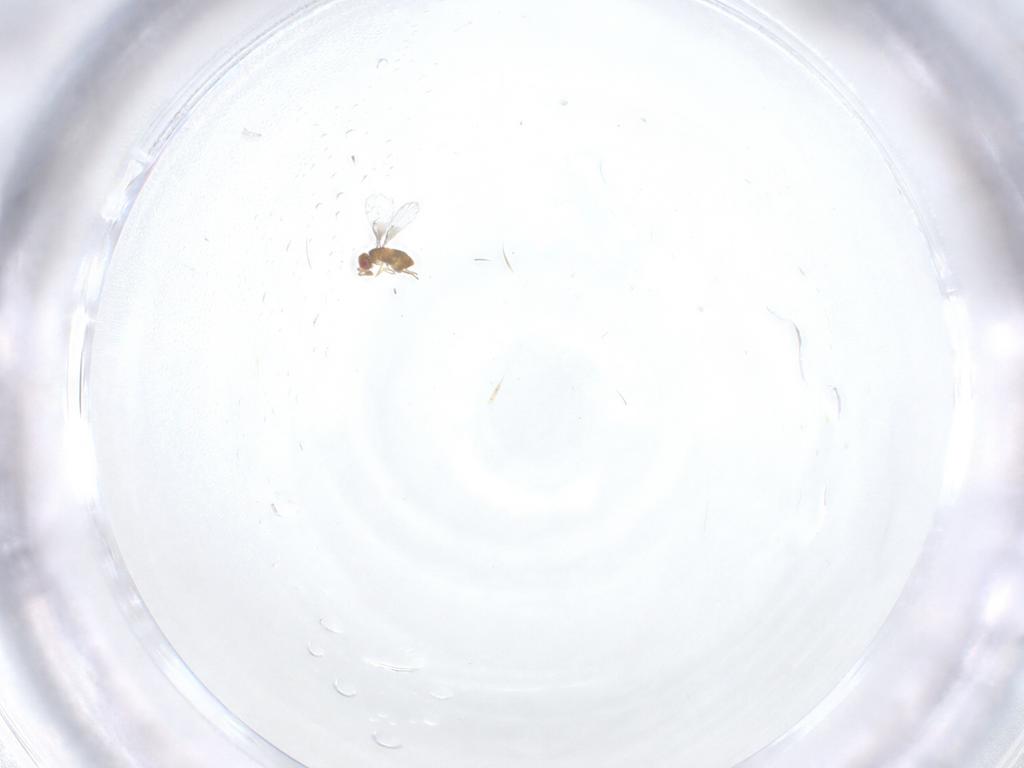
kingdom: Animalia
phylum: Arthropoda
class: Insecta
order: Hymenoptera
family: Trichogrammatidae
